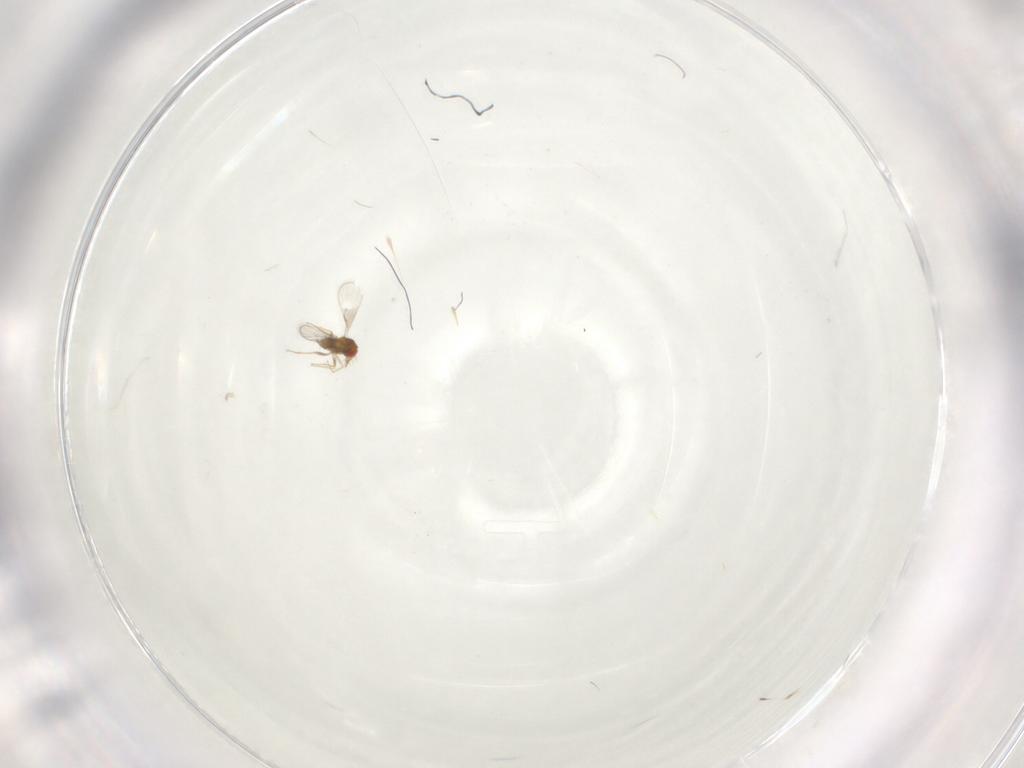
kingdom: Animalia
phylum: Arthropoda
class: Insecta
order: Hymenoptera
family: Trichogrammatidae
